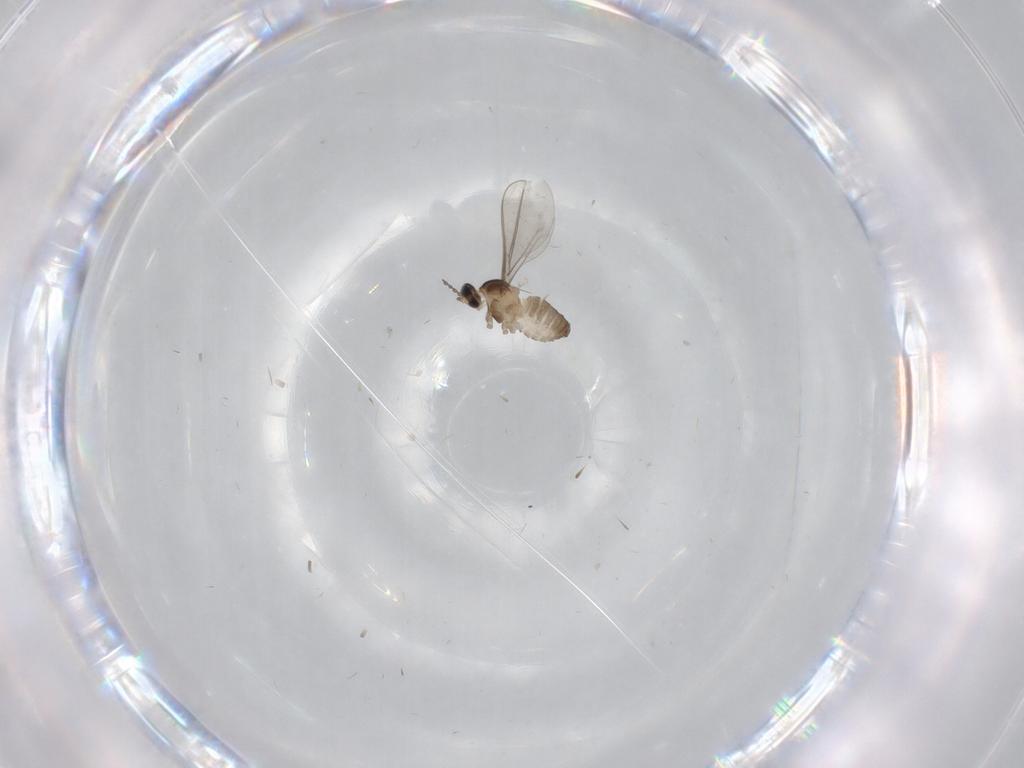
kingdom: Animalia
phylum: Arthropoda
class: Insecta
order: Diptera
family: Cecidomyiidae
